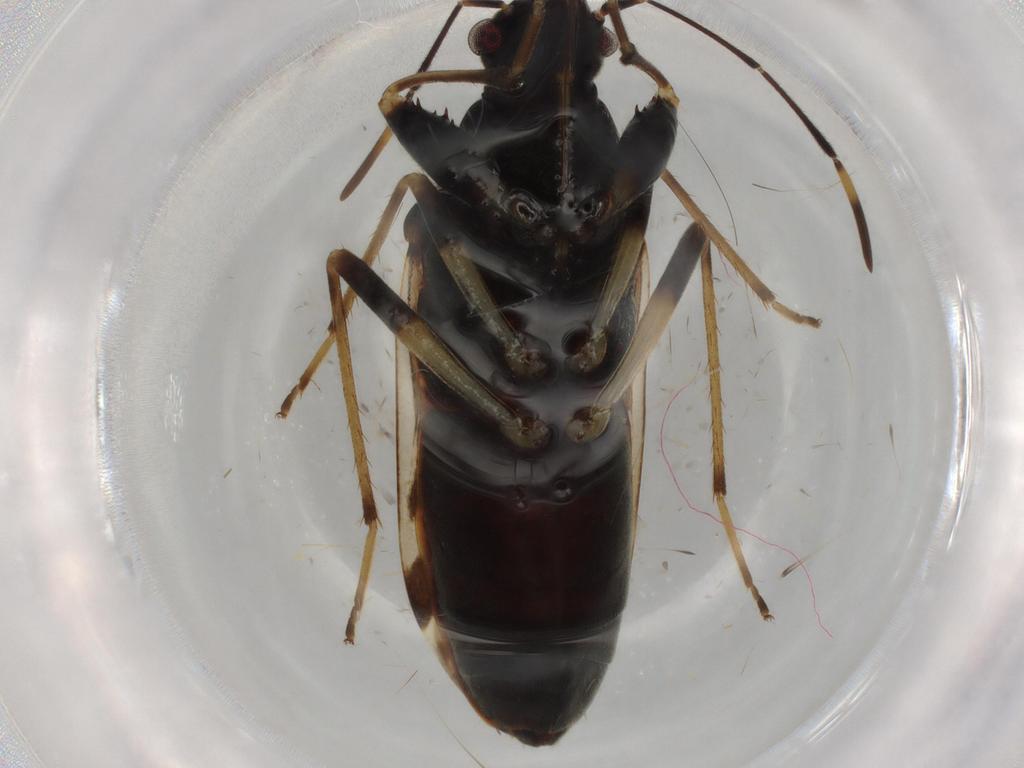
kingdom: Animalia
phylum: Arthropoda
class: Insecta
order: Hemiptera
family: Rhyparochromidae
